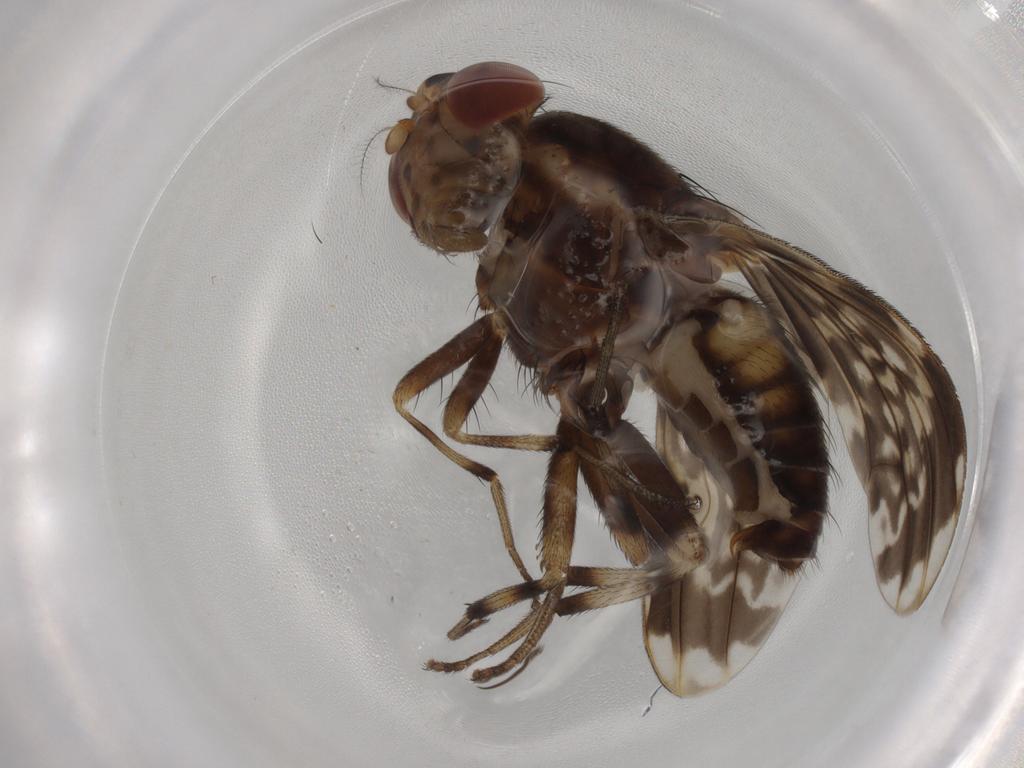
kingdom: Animalia
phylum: Arthropoda
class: Insecta
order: Diptera
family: Lauxaniidae
